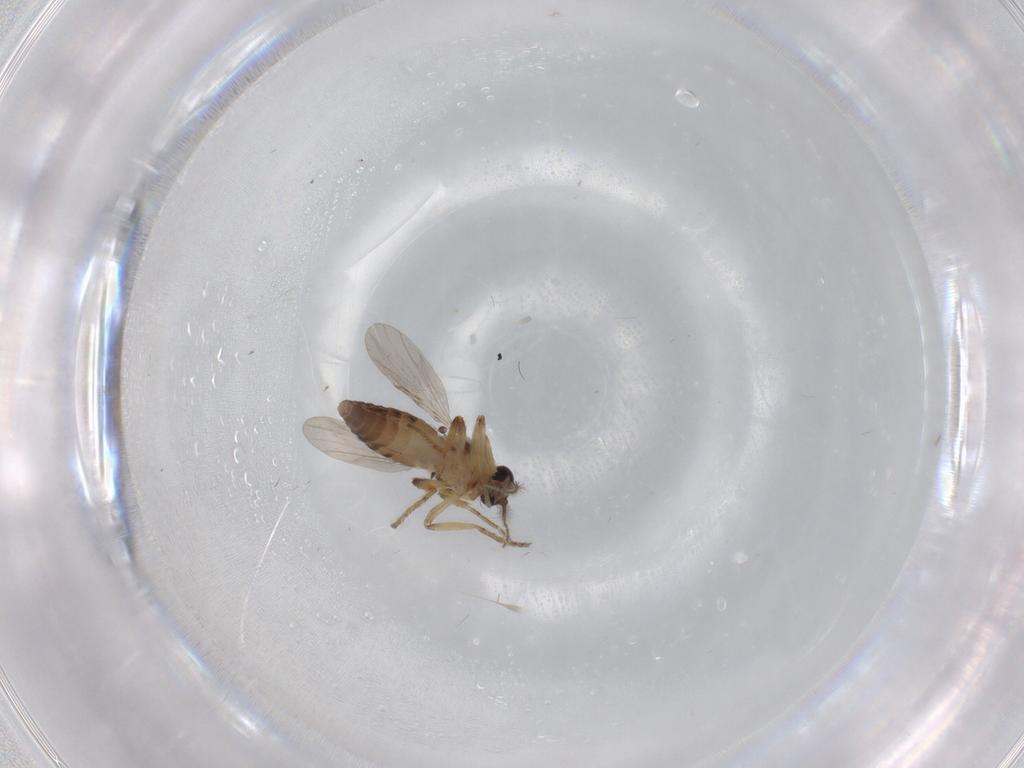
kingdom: Animalia
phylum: Arthropoda
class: Insecta
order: Diptera
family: Ceratopogonidae
